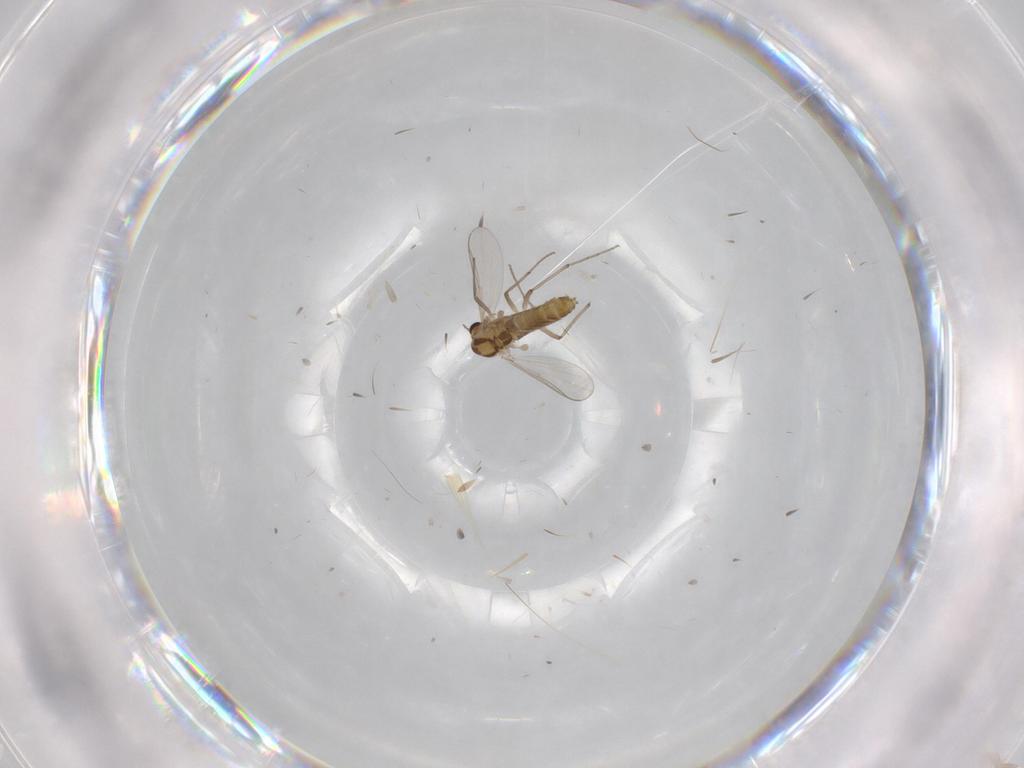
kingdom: Animalia
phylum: Arthropoda
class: Insecta
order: Diptera
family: Chironomidae
